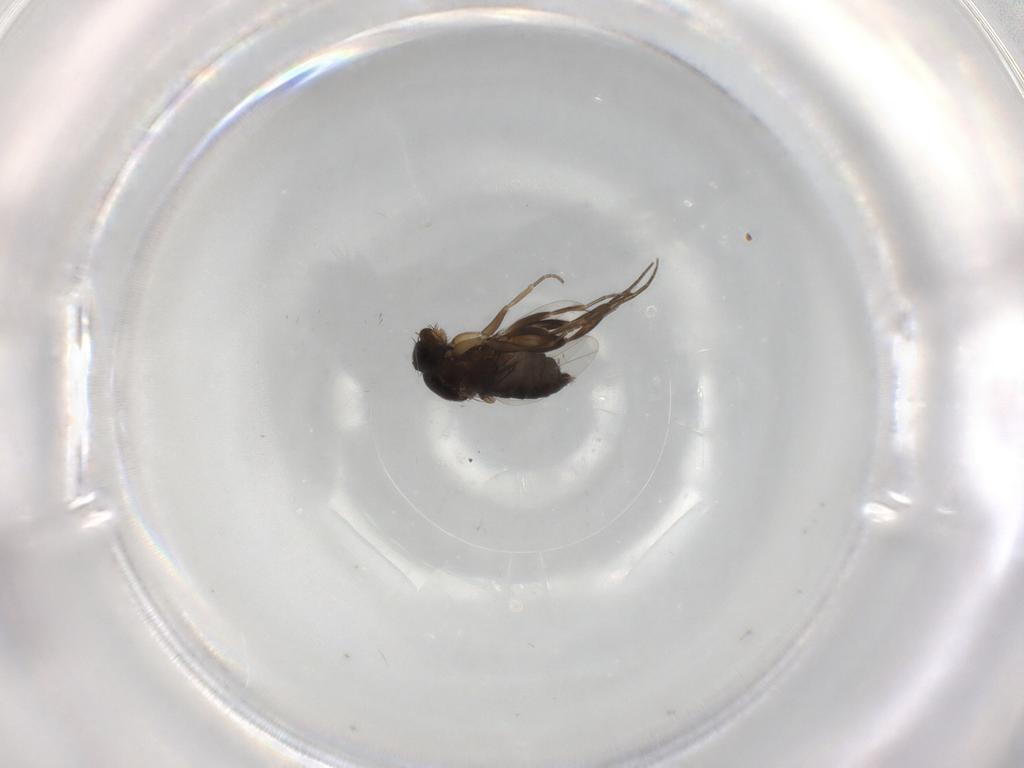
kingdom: Animalia
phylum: Arthropoda
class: Insecta
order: Diptera
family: Phoridae
